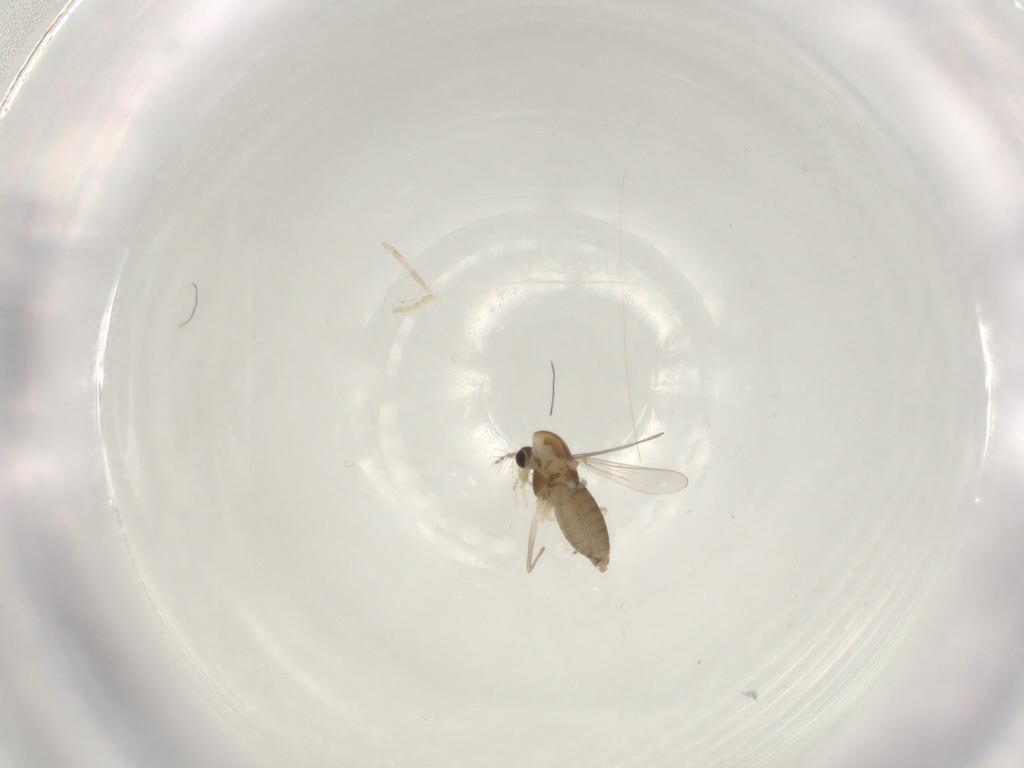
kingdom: Animalia
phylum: Arthropoda
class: Insecta
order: Diptera
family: Chironomidae
